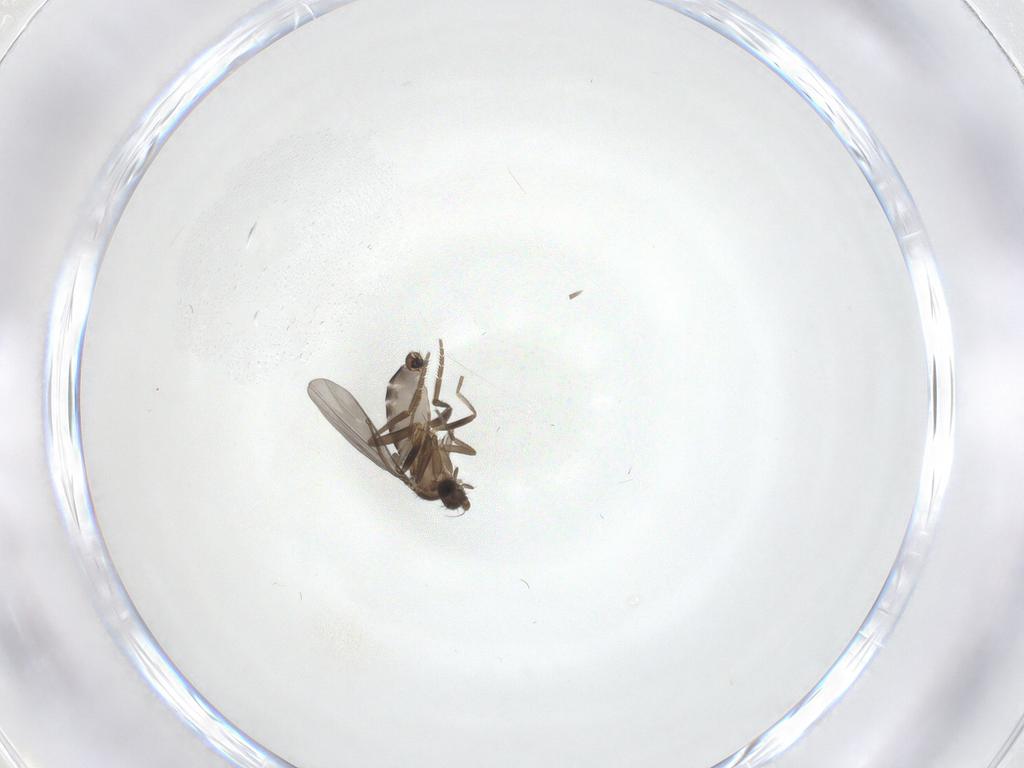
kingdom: Animalia
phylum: Arthropoda
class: Insecta
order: Diptera
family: Phoridae
